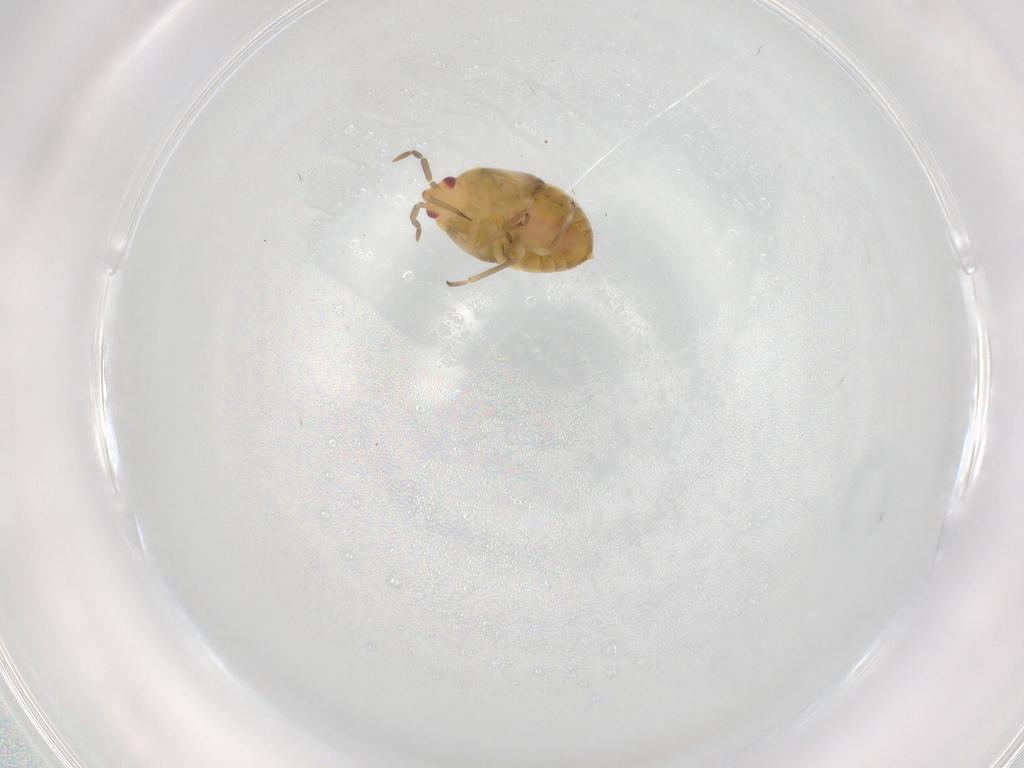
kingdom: Animalia
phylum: Arthropoda
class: Insecta
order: Hemiptera
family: Anthocoridae
